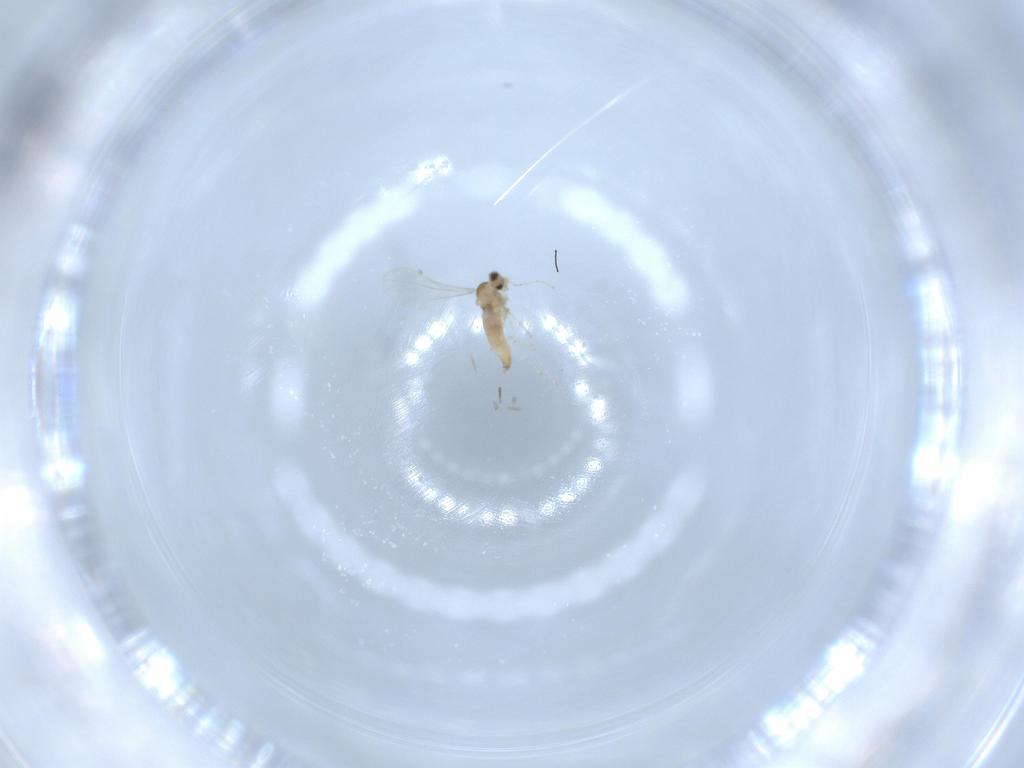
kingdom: Animalia
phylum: Arthropoda
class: Insecta
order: Diptera
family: Cecidomyiidae
